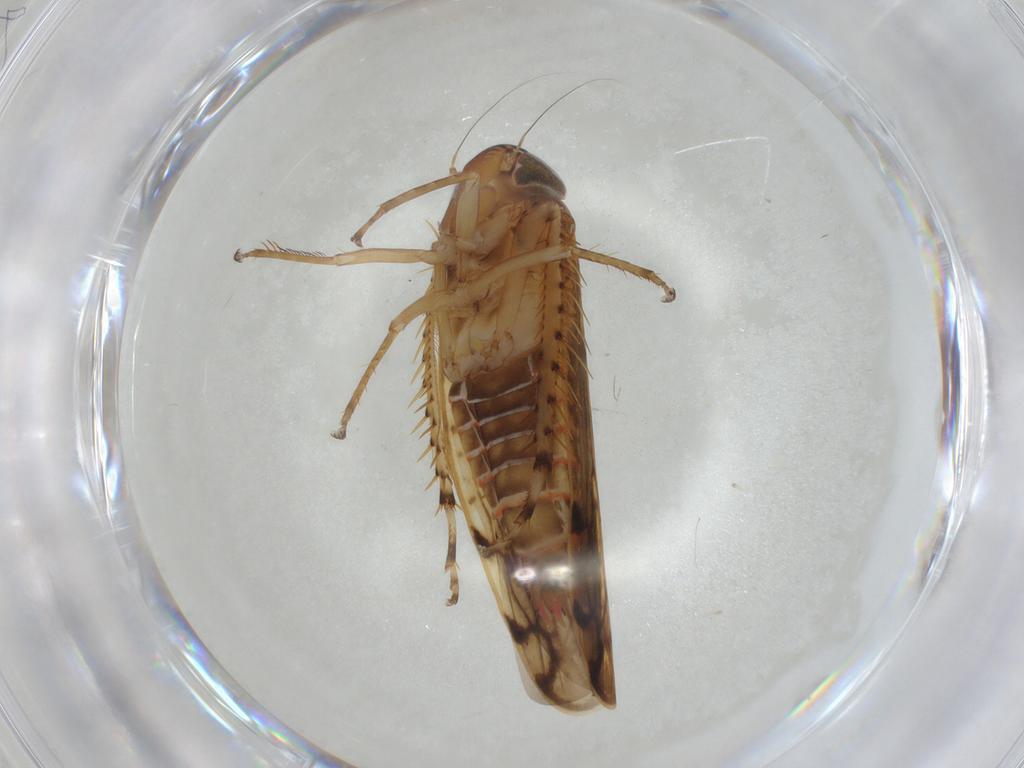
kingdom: Animalia
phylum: Arthropoda
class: Insecta
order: Hemiptera
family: Cicadellidae
